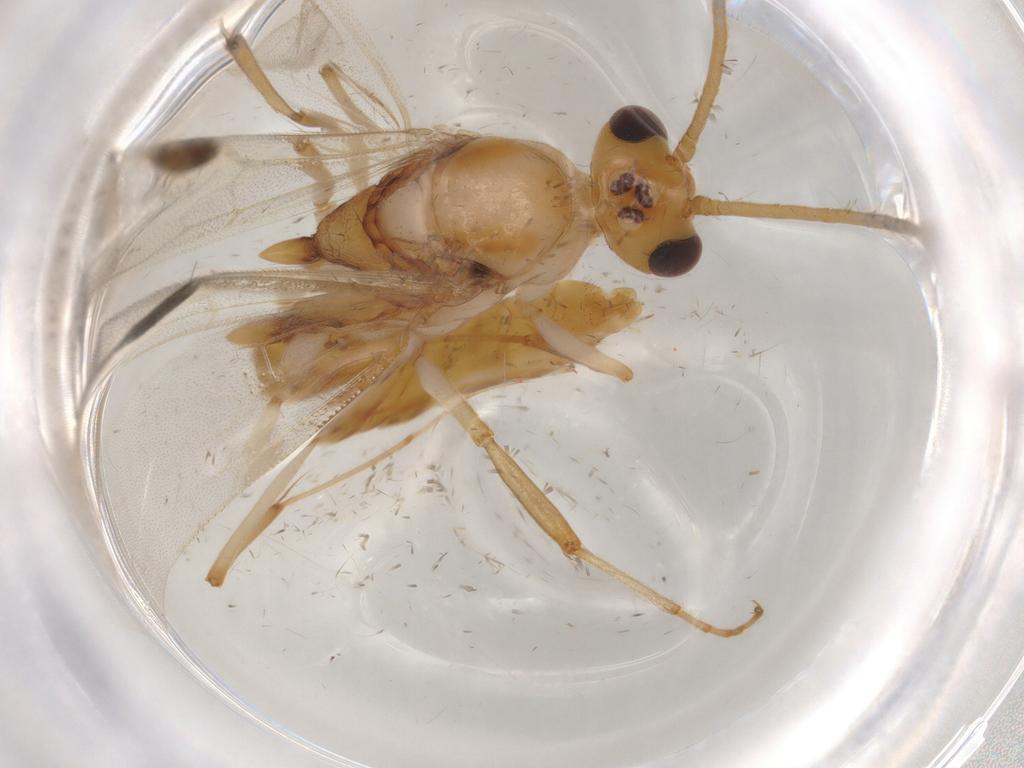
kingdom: Animalia
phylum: Arthropoda
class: Insecta
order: Hymenoptera
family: Formicidae
